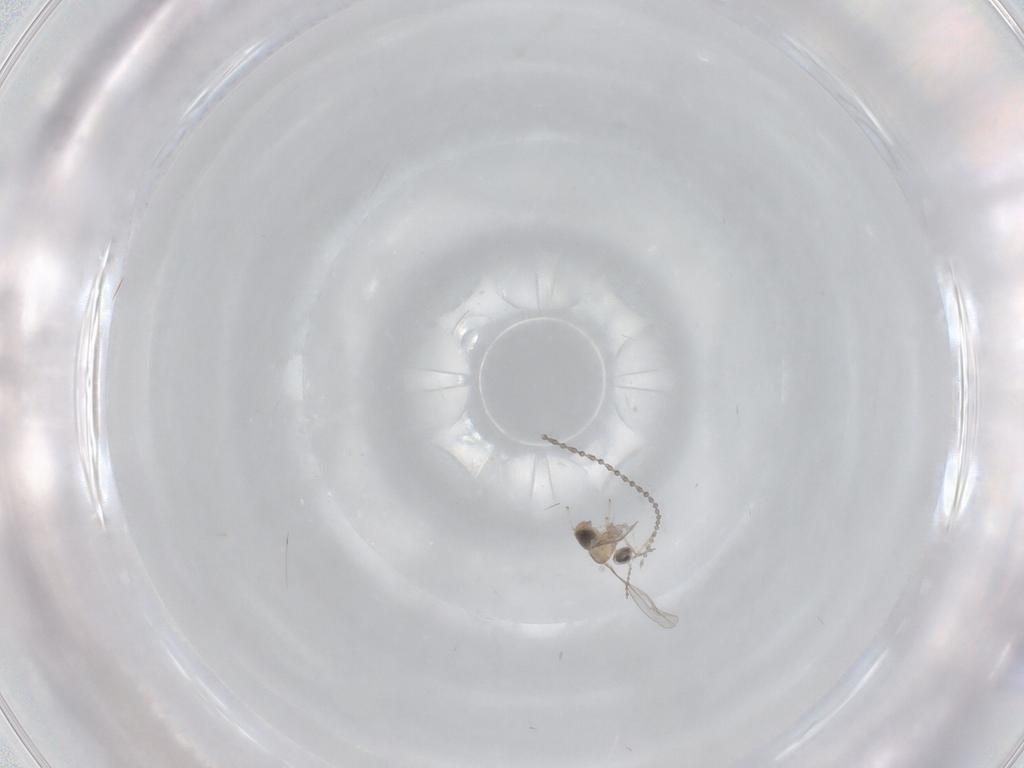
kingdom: Animalia
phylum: Arthropoda
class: Insecta
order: Diptera
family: Cecidomyiidae
